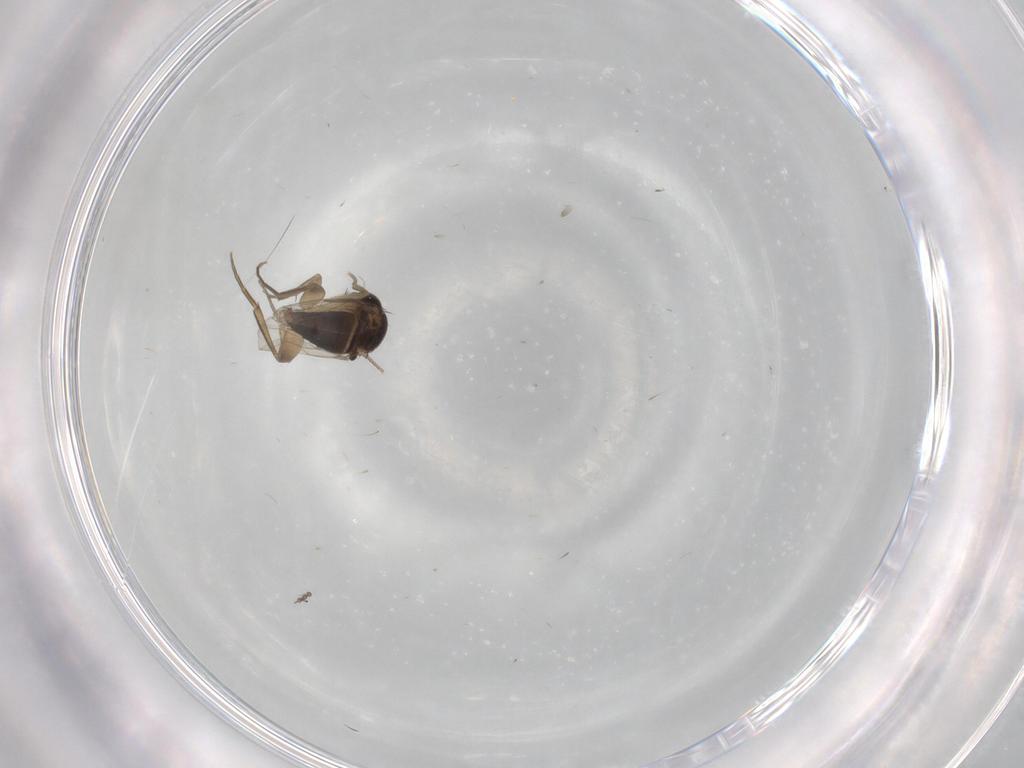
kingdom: Animalia
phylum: Arthropoda
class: Insecta
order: Diptera
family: Phoridae
